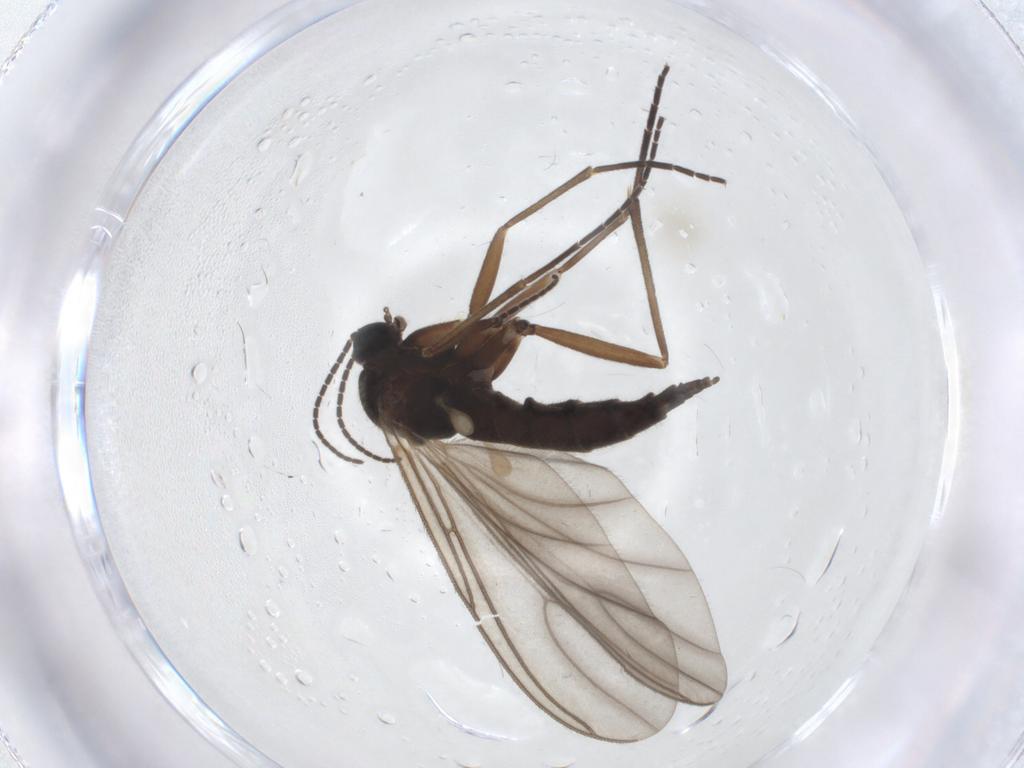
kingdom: Animalia
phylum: Arthropoda
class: Insecta
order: Diptera
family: Sciaridae
